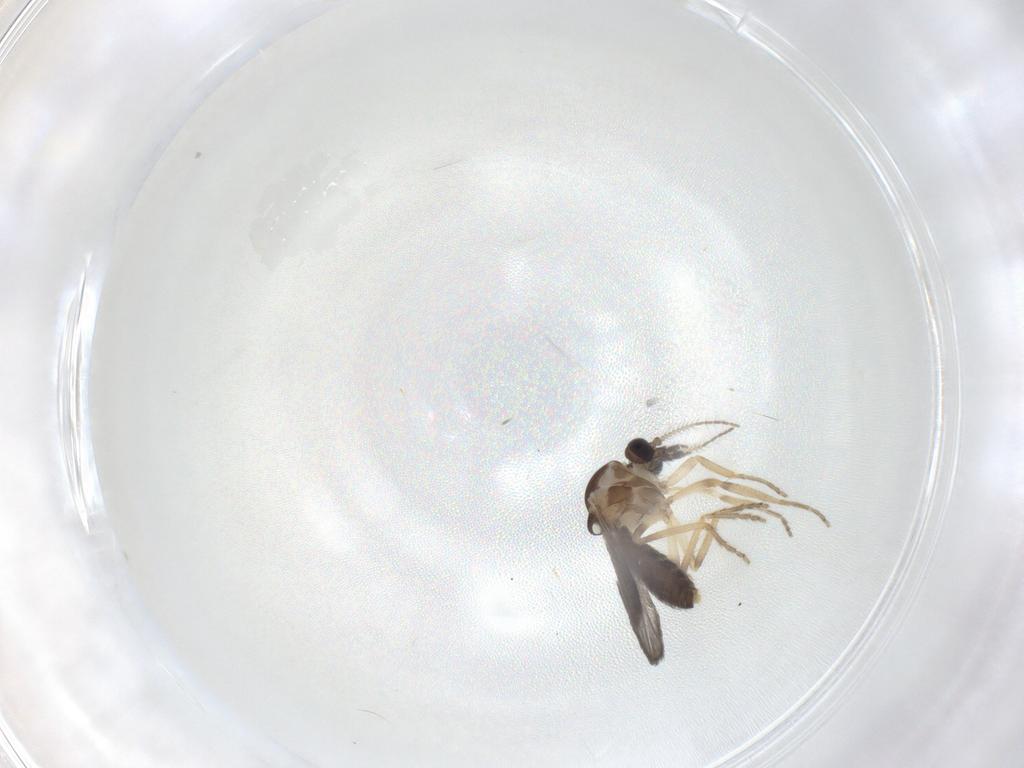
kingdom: Animalia
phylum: Arthropoda
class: Insecta
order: Diptera
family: Ceratopogonidae
